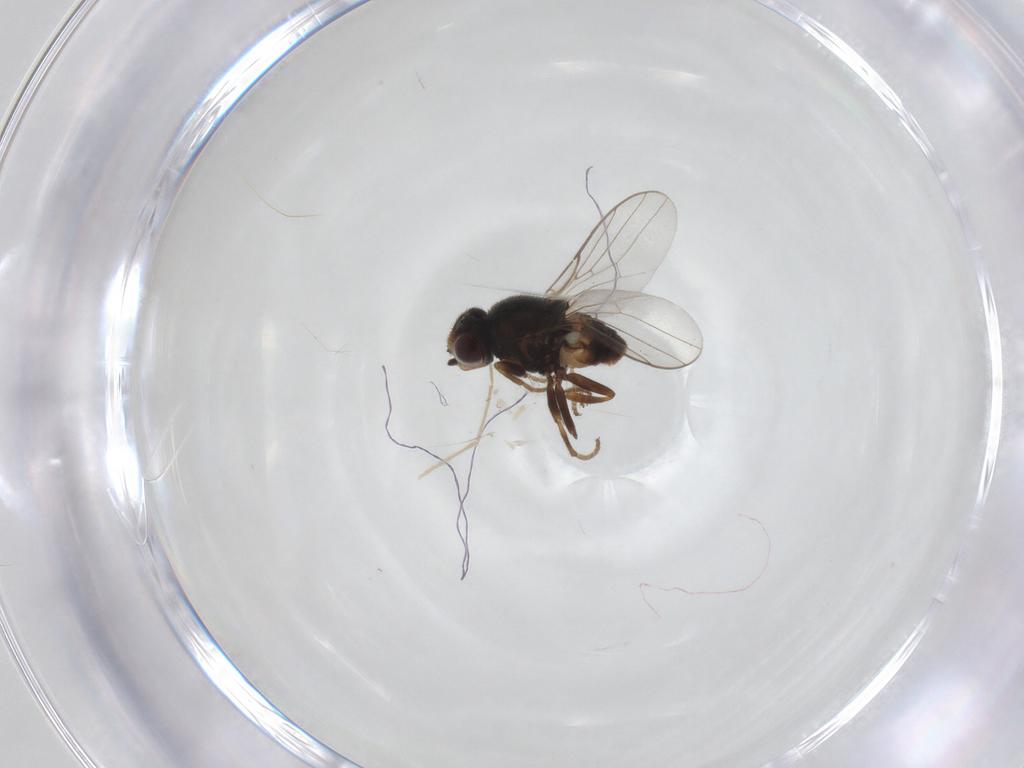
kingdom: Animalia
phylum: Arthropoda
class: Insecta
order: Diptera
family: Chloropidae
